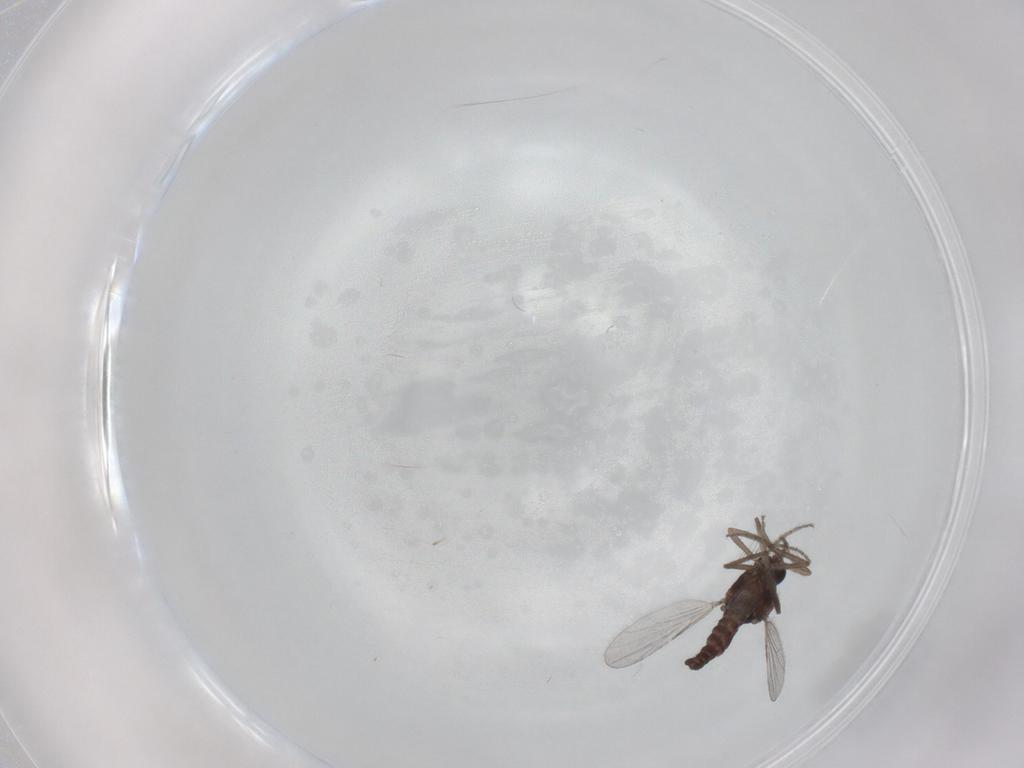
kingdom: Animalia
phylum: Arthropoda
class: Insecta
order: Diptera
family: Ceratopogonidae
